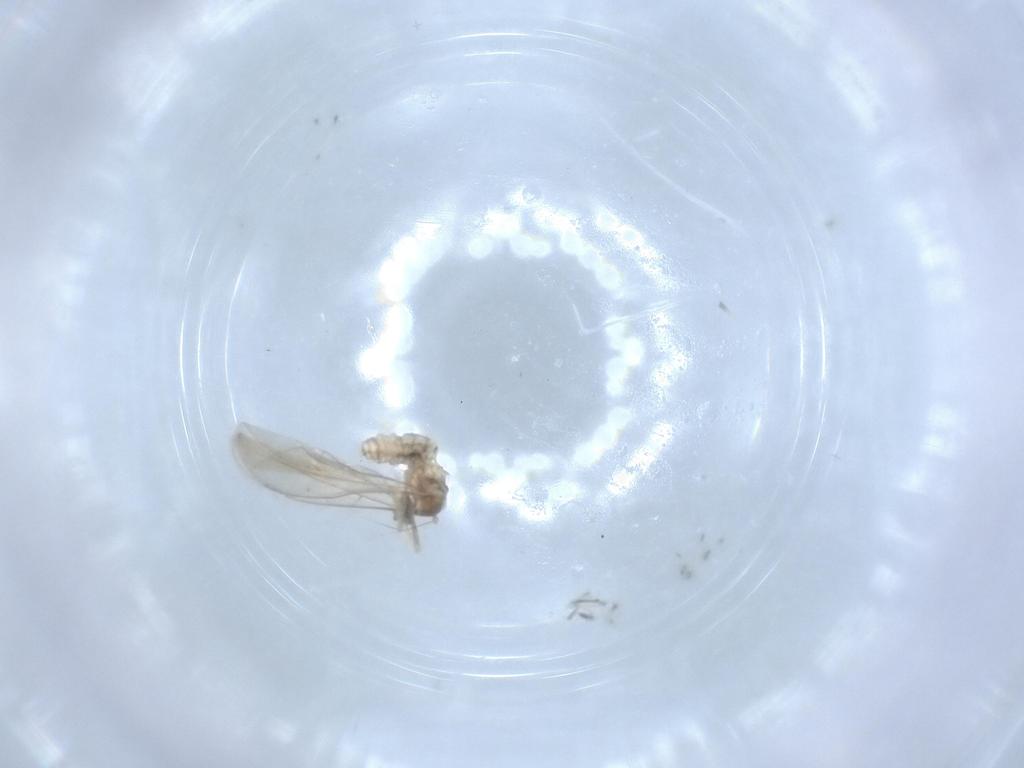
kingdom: Animalia
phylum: Arthropoda
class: Insecta
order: Diptera
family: Cecidomyiidae
